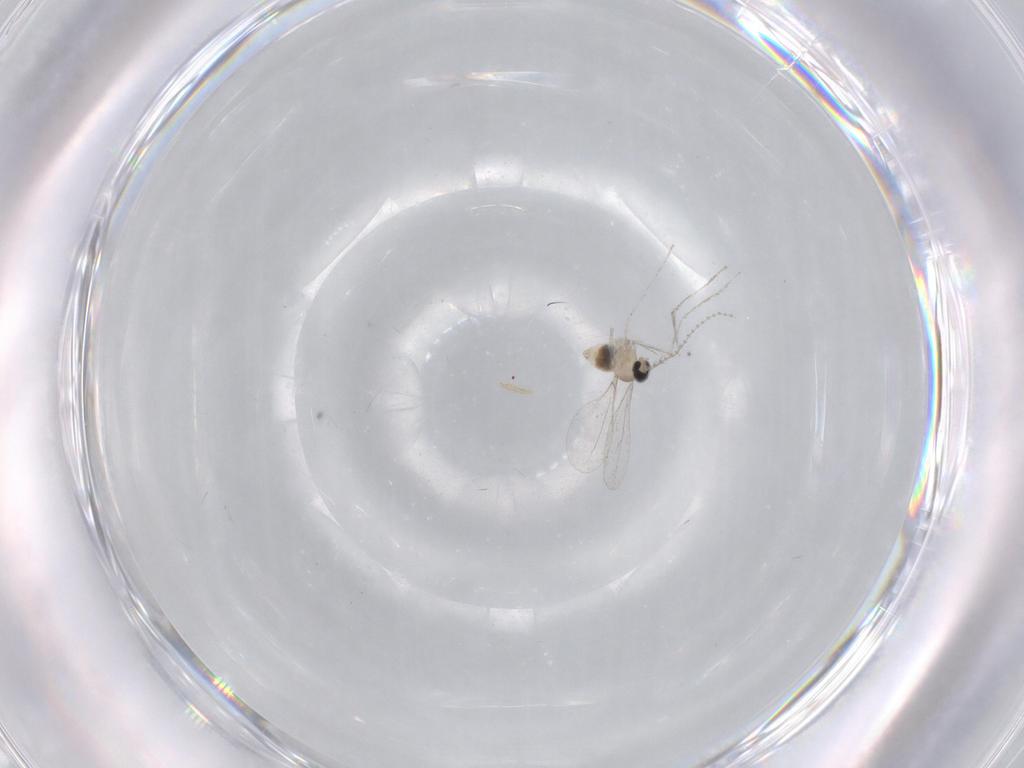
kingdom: Animalia
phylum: Arthropoda
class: Insecta
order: Diptera
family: Cecidomyiidae
